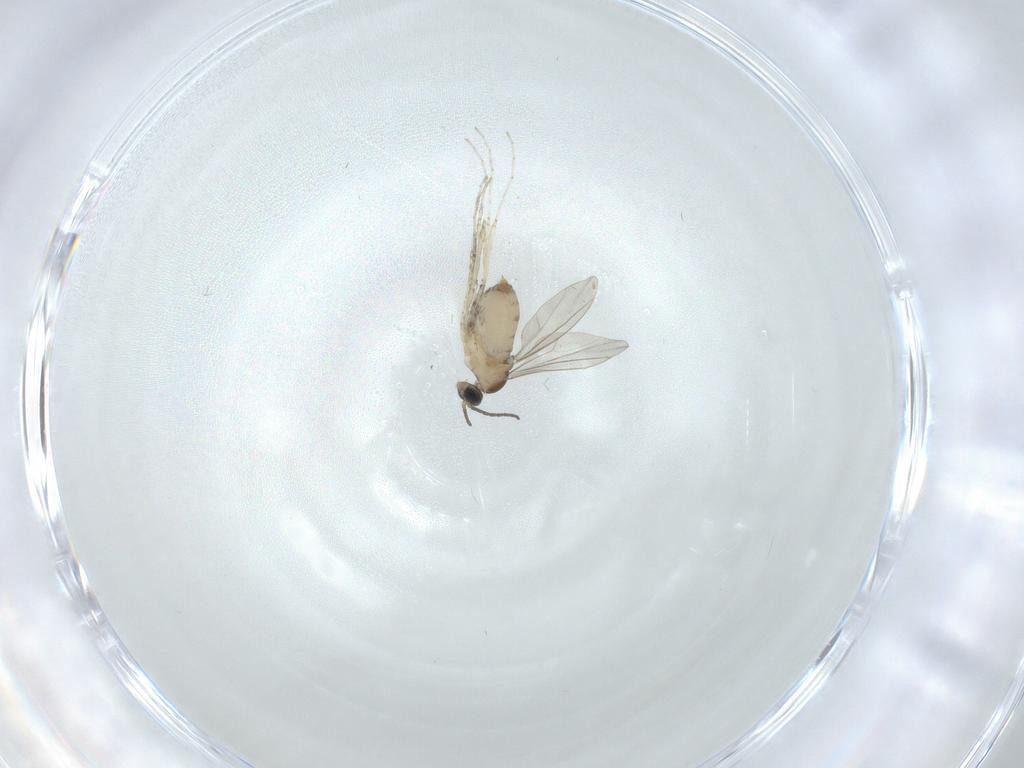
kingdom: Animalia
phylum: Arthropoda
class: Insecta
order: Diptera
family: Cecidomyiidae
